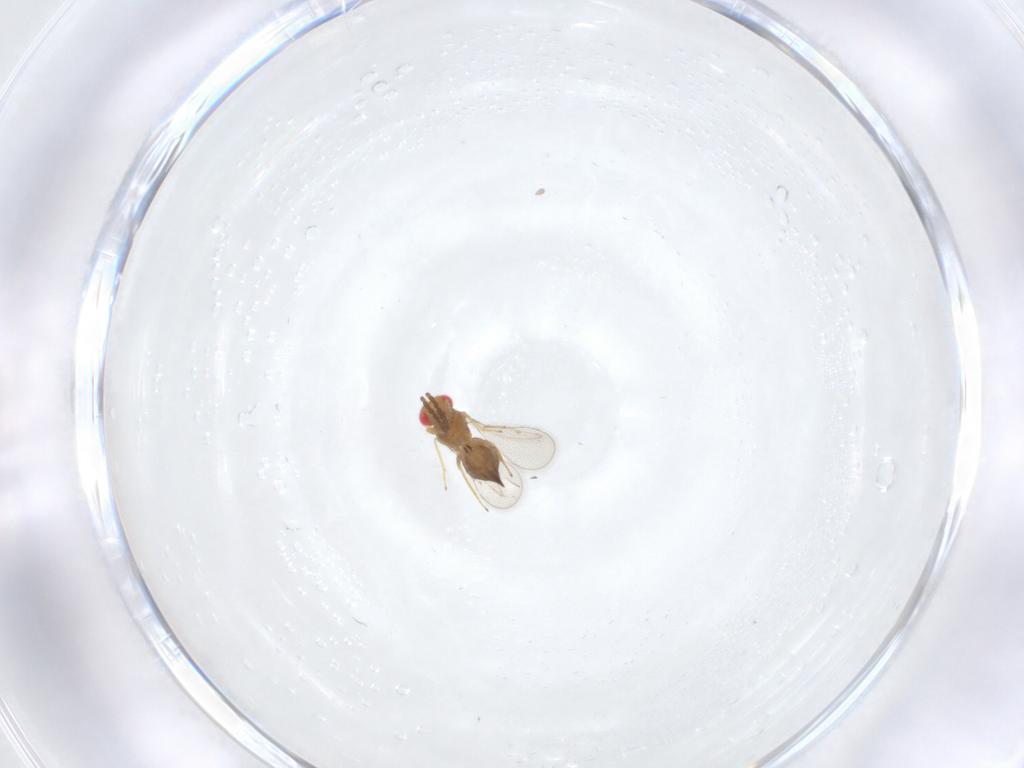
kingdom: Animalia
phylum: Arthropoda
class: Insecta
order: Hymenoptera
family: Eulophidae
